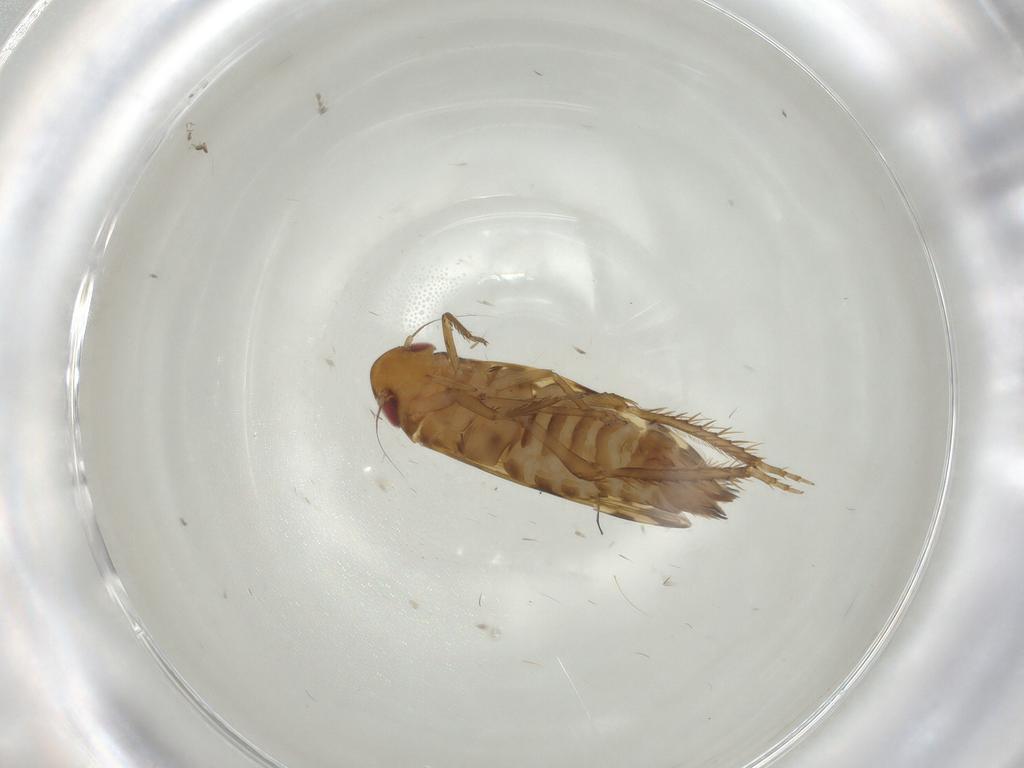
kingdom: Animalia
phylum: Arthropoda
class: Insecta
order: Hemiptera
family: Cicadellidae
